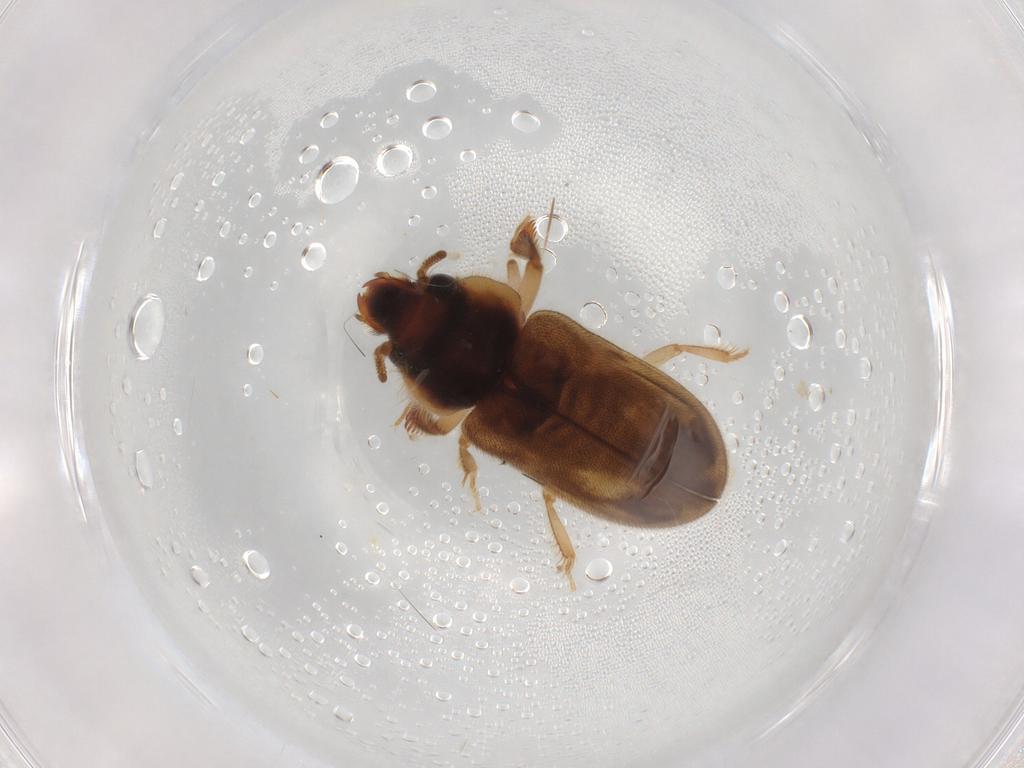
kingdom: Animalia
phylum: Arthropoda
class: Insecta
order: Coleoptera
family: Heteroceridae
